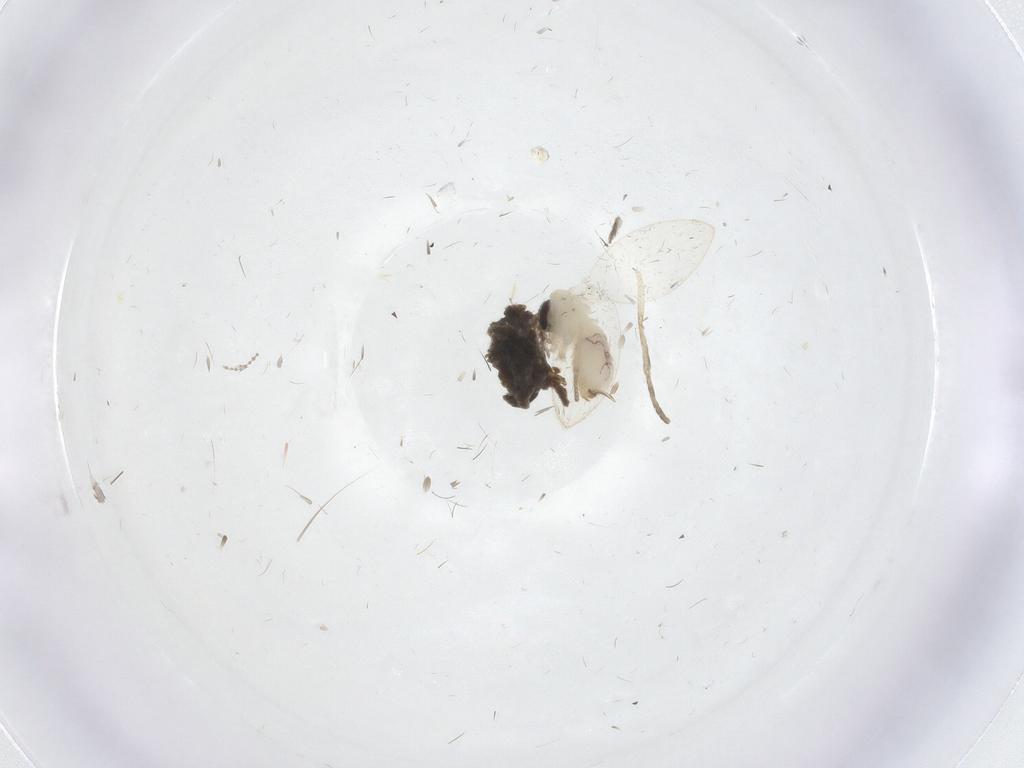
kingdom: Animalia
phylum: Arthropoda
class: Insecta
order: Diptera
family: Psychodidae
